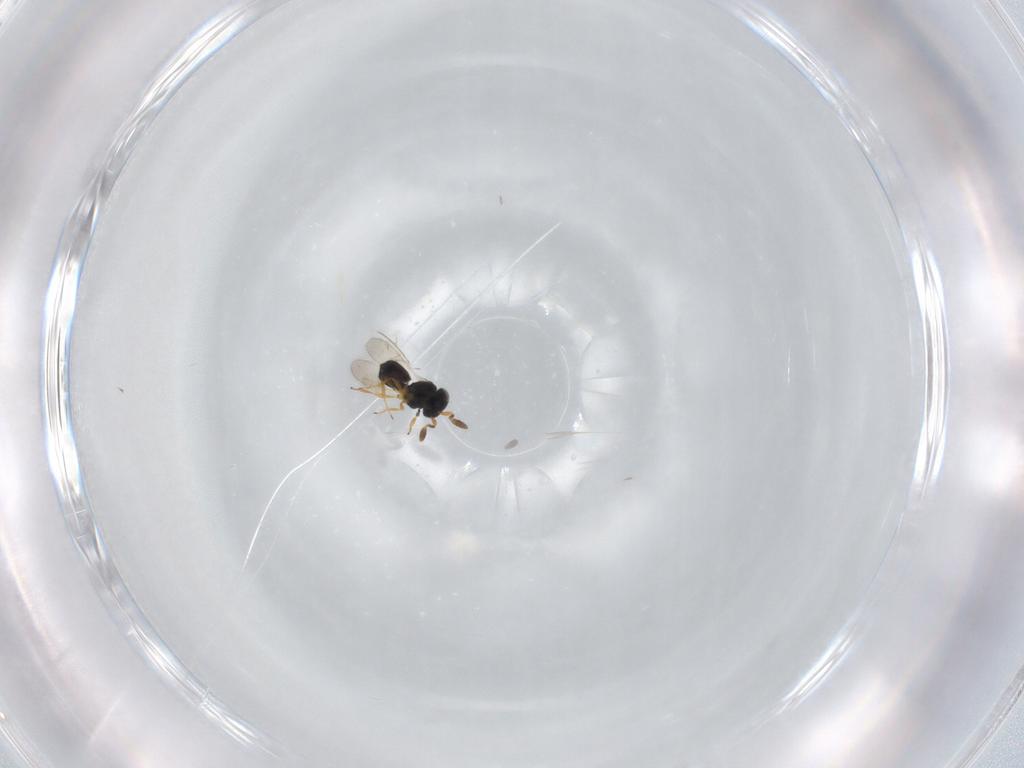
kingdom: Animalia
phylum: Arthropoda
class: Insecta
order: Hymenoptera
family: Scelionidae
